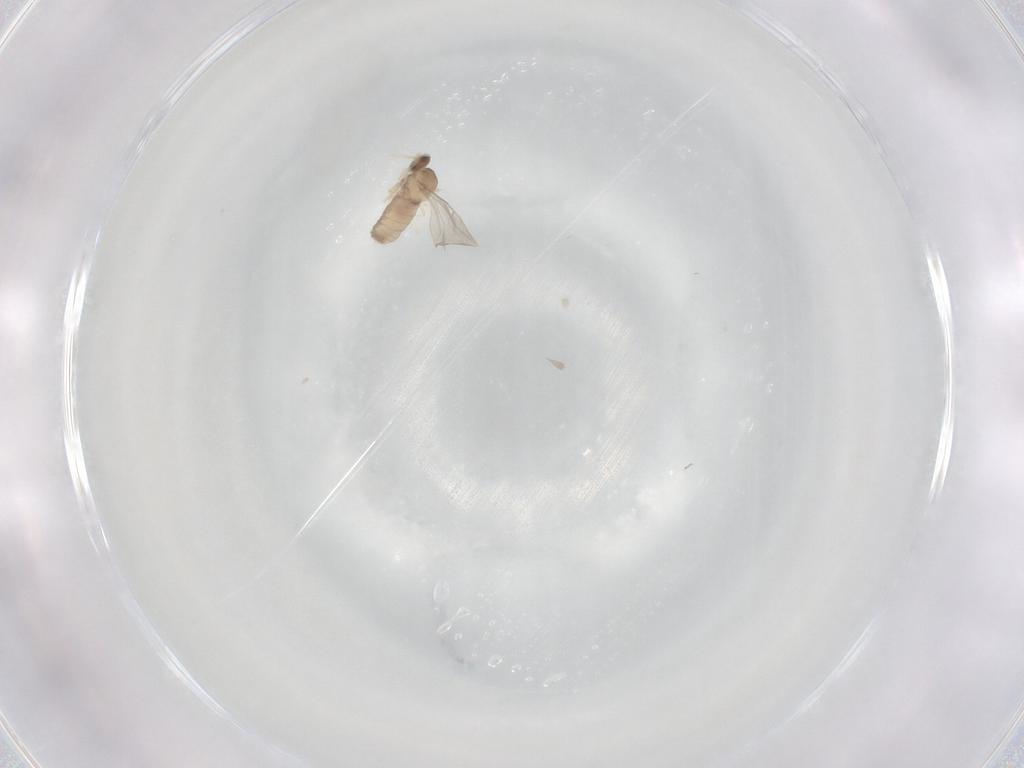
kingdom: Animalia
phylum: Arthropoda
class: Insecta
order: Diptera
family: Cecidomyiidae
